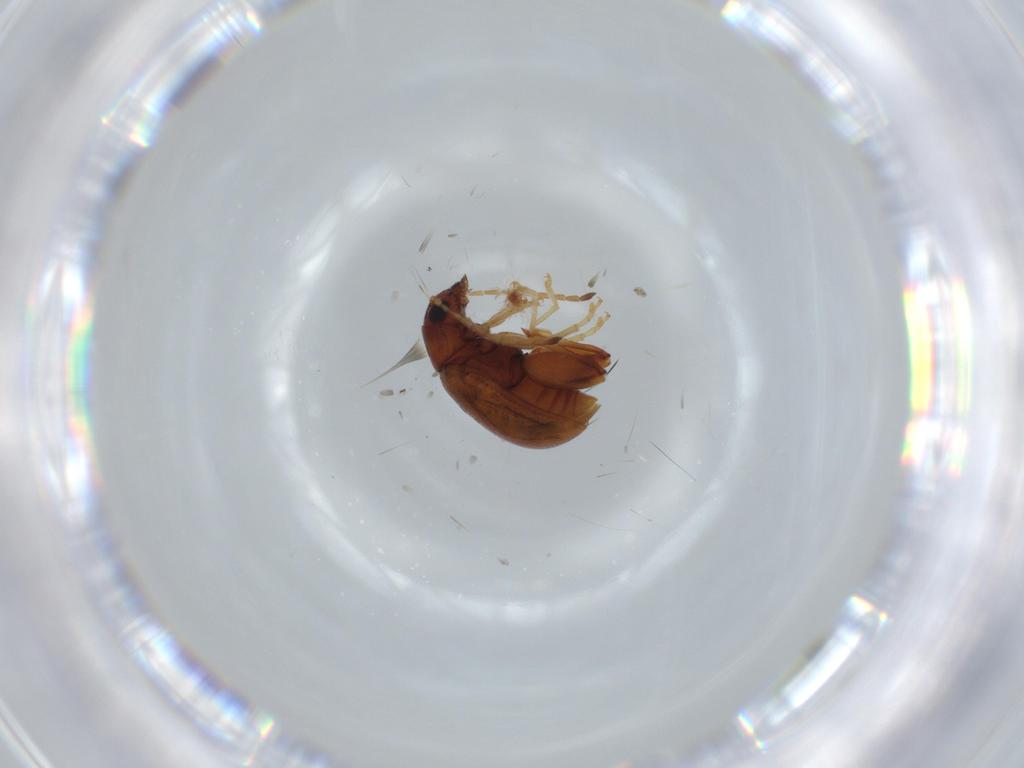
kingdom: Animalia
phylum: Arthropoda
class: Insecta
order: Coleoptera
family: Chrysomelidae
